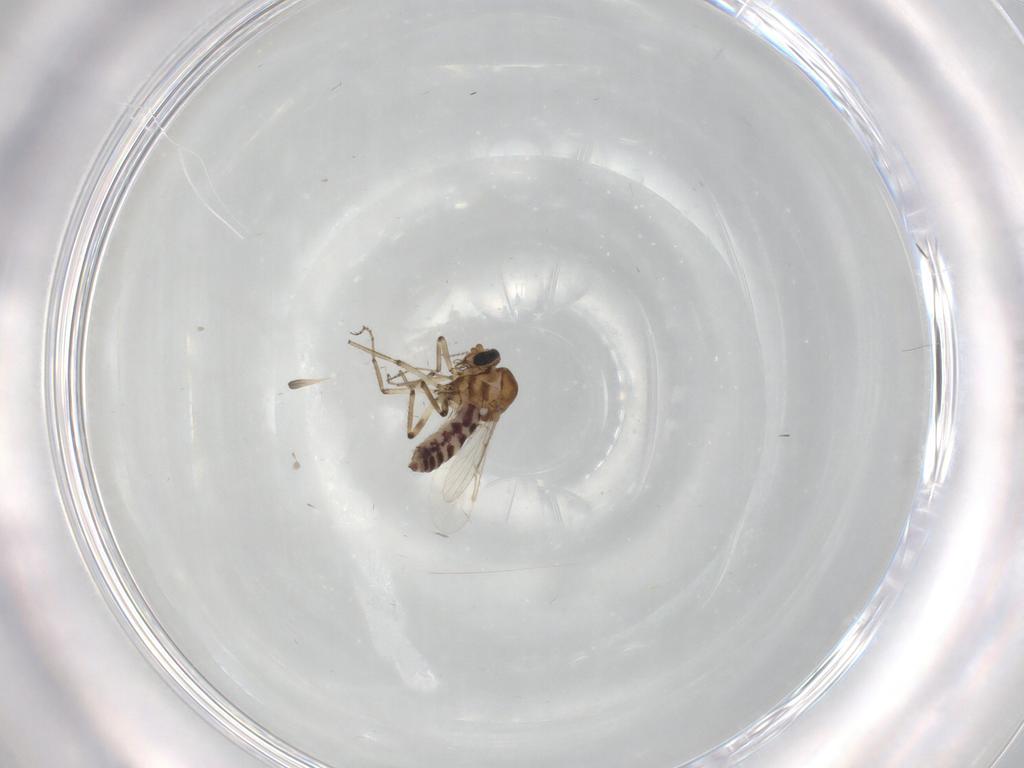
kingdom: Animalia
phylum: Arthropoda
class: Insecta
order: Diptera
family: Ceratopogonidae
